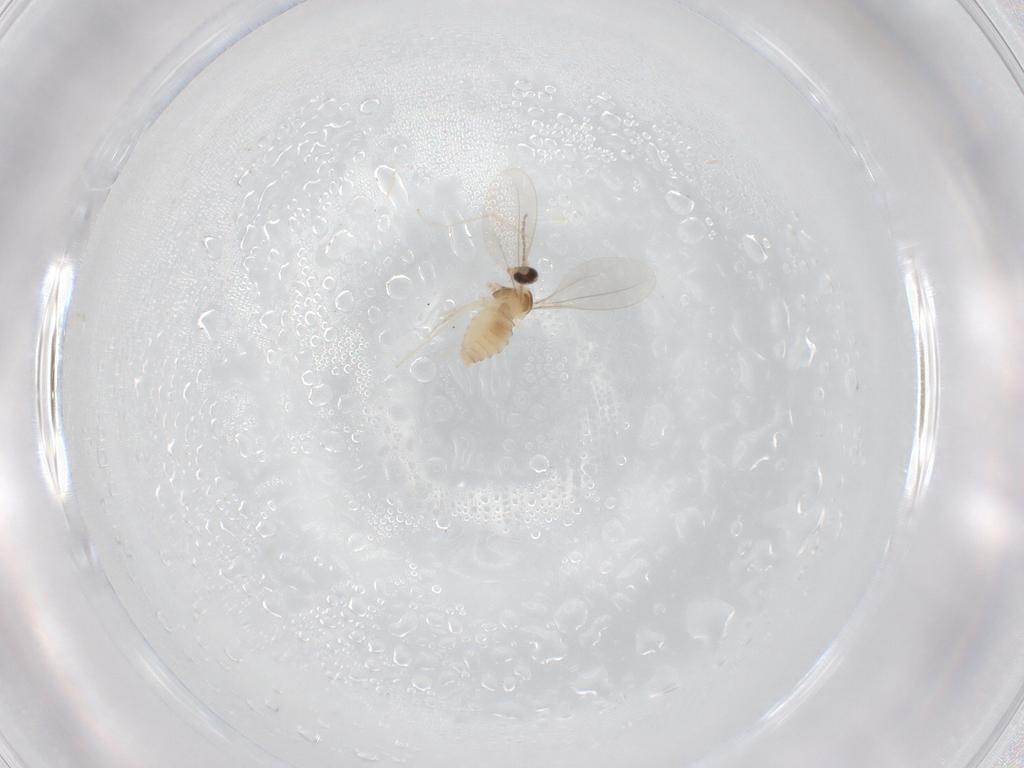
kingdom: Animalia
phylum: Arthropoda
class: Insecta
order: Diptera
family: Cecidomyiidae
